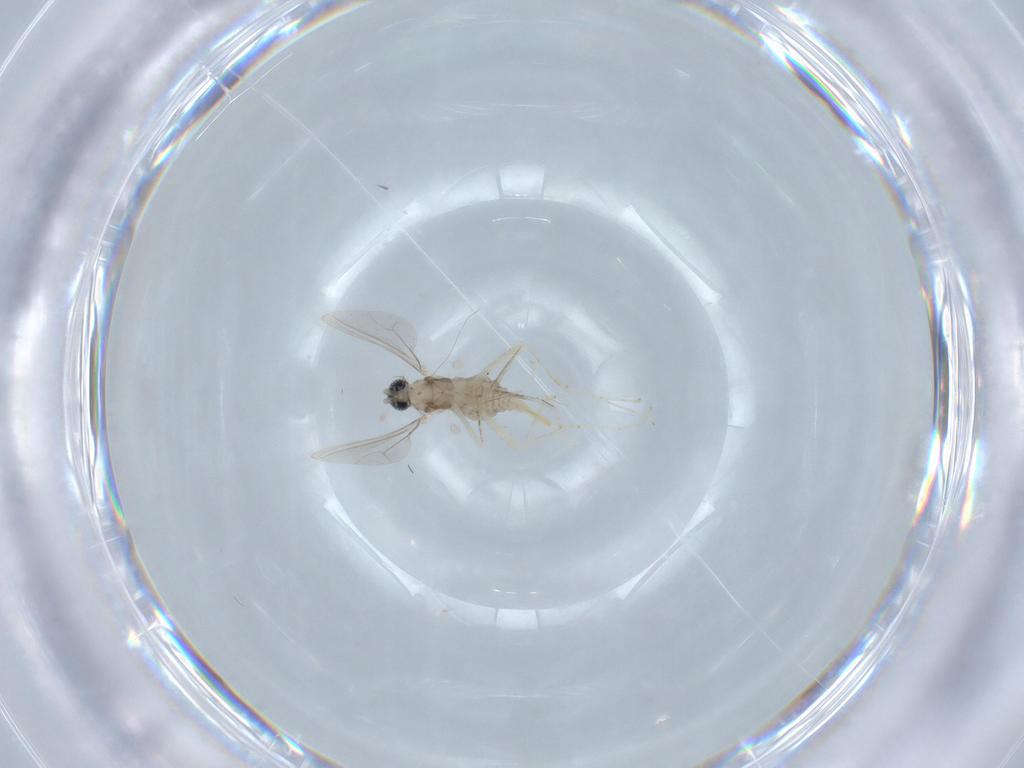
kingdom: Animalia
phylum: Arthropoda
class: Insecta
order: Diptera
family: Cecidomyiidae
